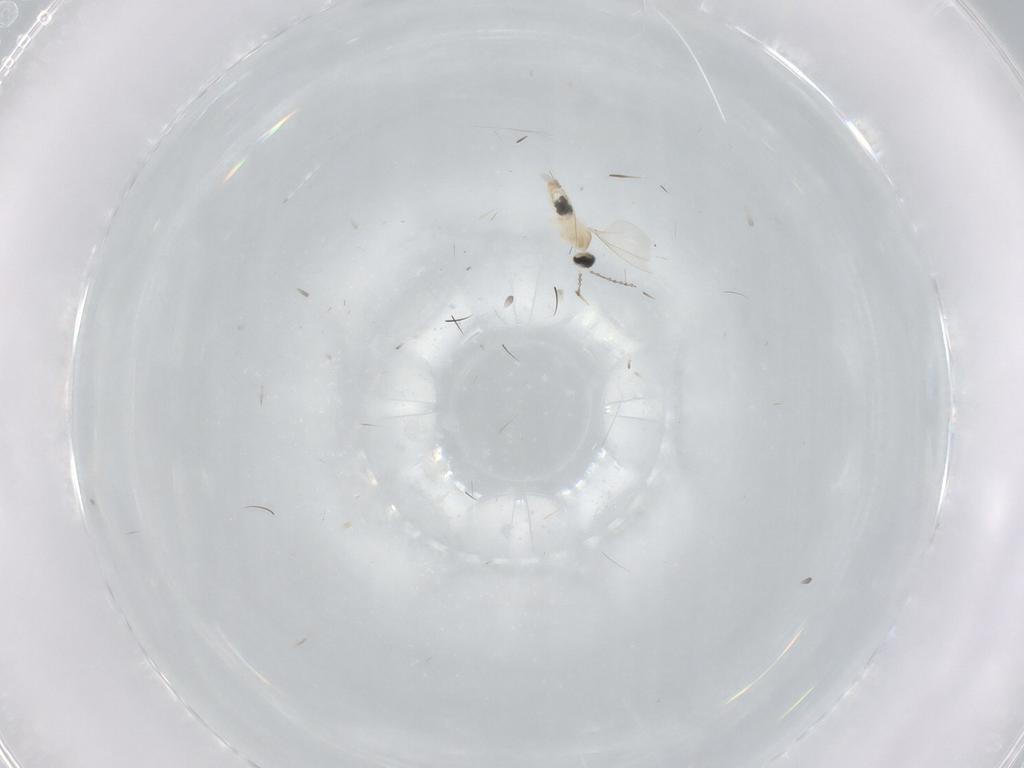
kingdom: Animalia
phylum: Arthropoda
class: Insecta
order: Diptera
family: Cecidomyiidae
